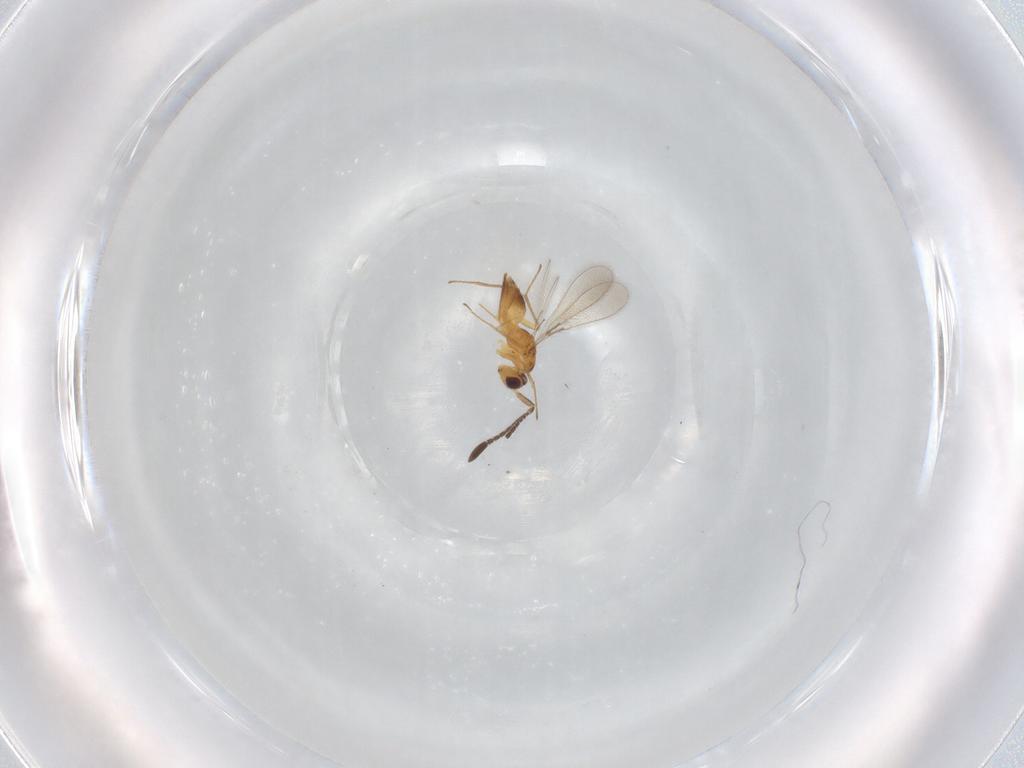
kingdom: Animalia
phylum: Arthropoda
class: Insecta
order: Hymenoptera
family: Mymaridae
